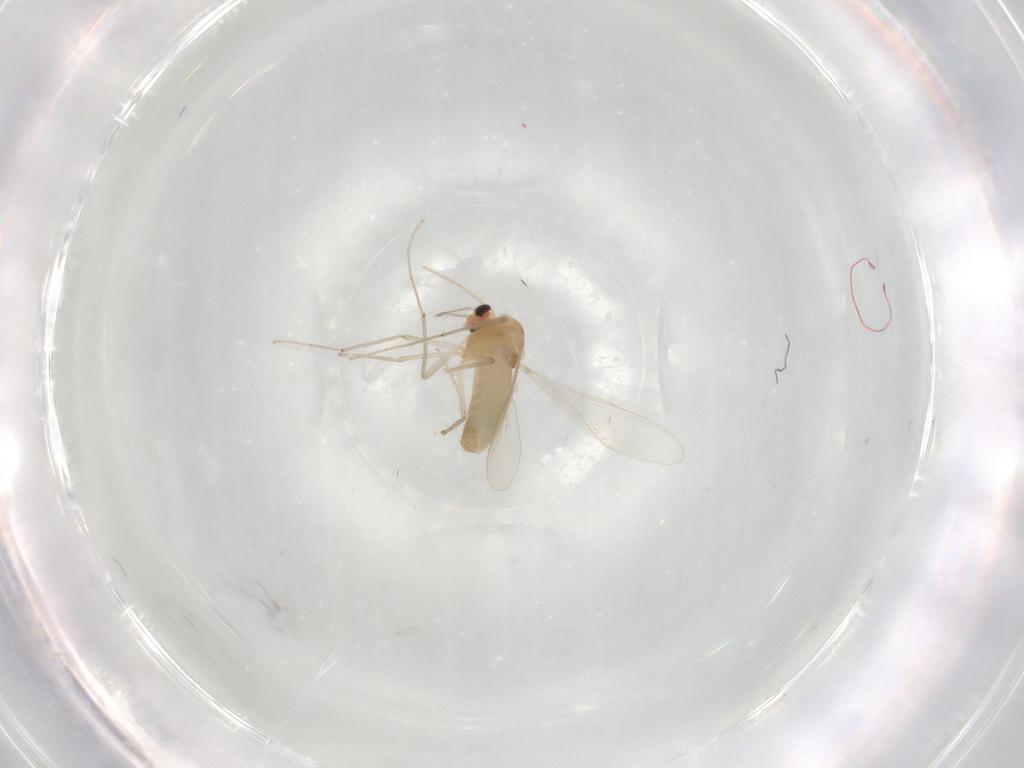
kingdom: Animalia
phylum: Arthropoda
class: Insecta
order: Diptera
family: Chironomidae
